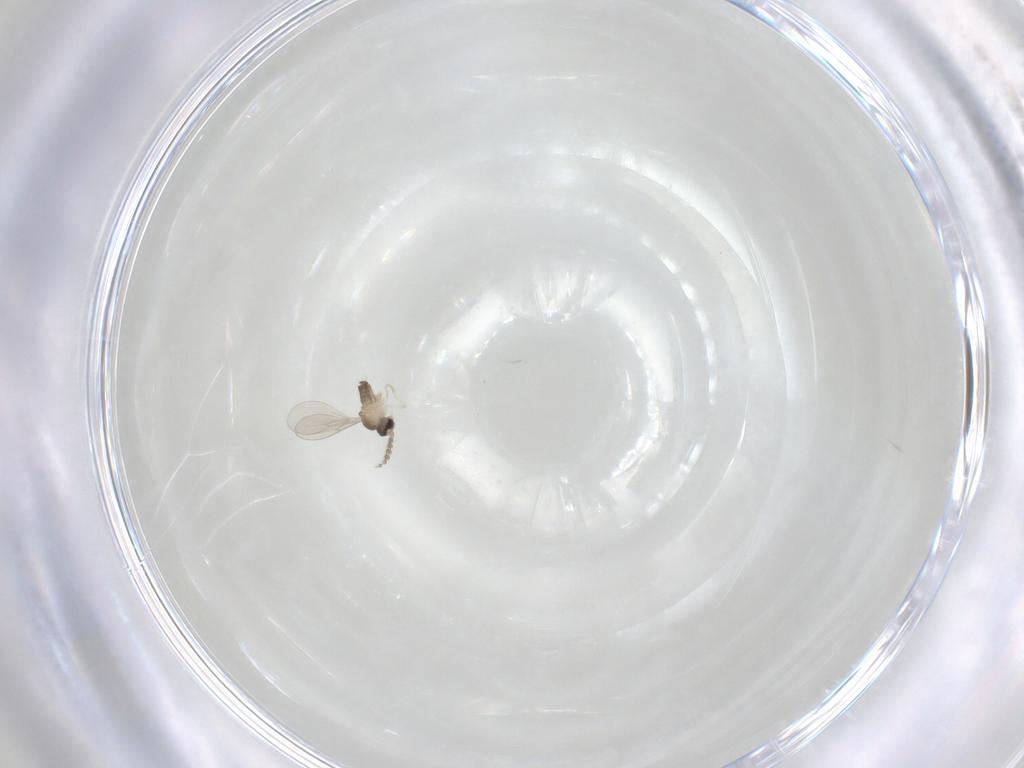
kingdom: Animalia
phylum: Arthropoda
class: Insecta
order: Diptera
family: Cecidomyiidae
